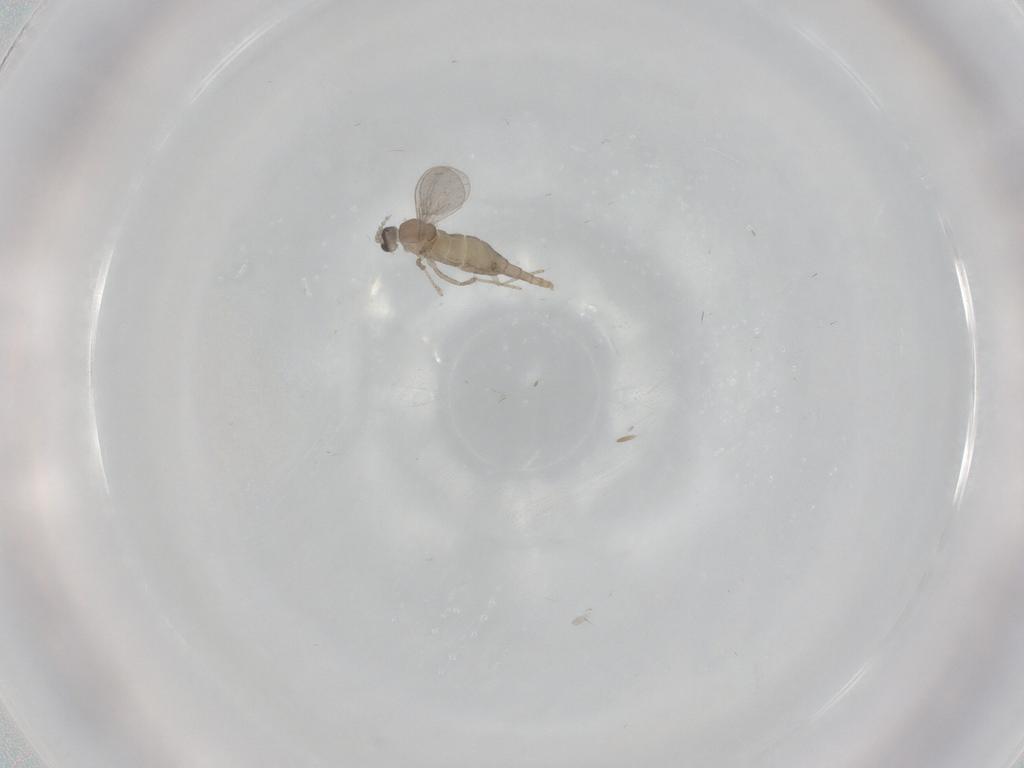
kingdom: Animalia
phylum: Arthropoda
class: Insecta
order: Diptera
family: Cecidomyiidae
